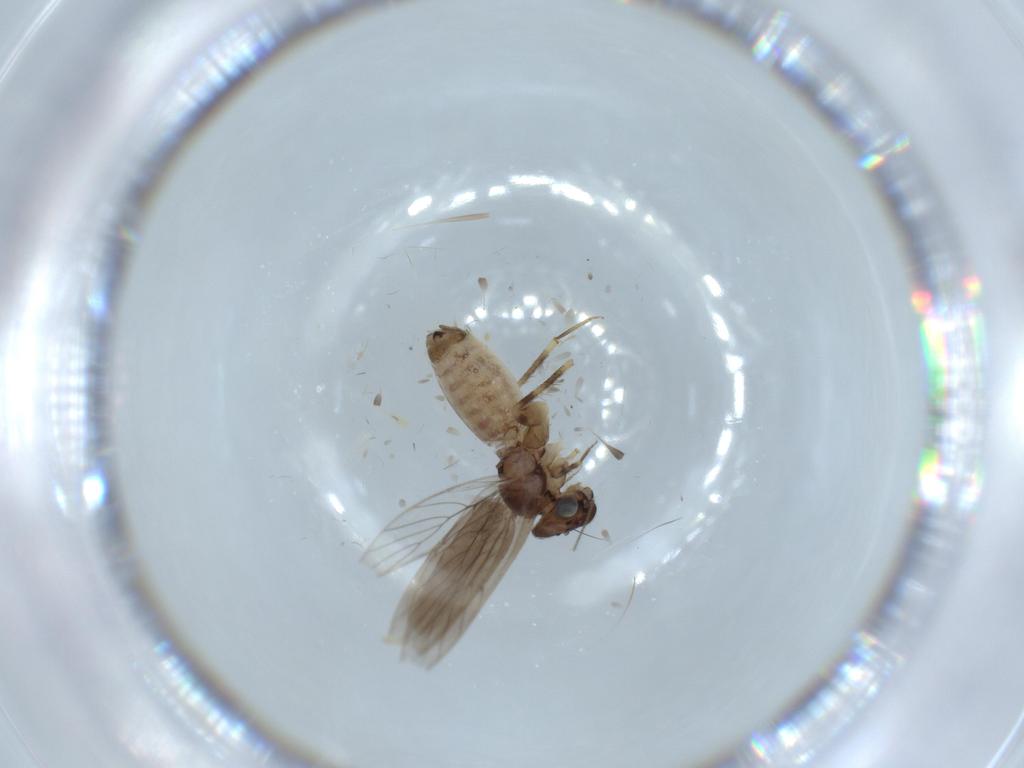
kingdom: Animalia
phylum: Arthropoda
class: Insecta
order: Psocodea
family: Lepidopsocidae
